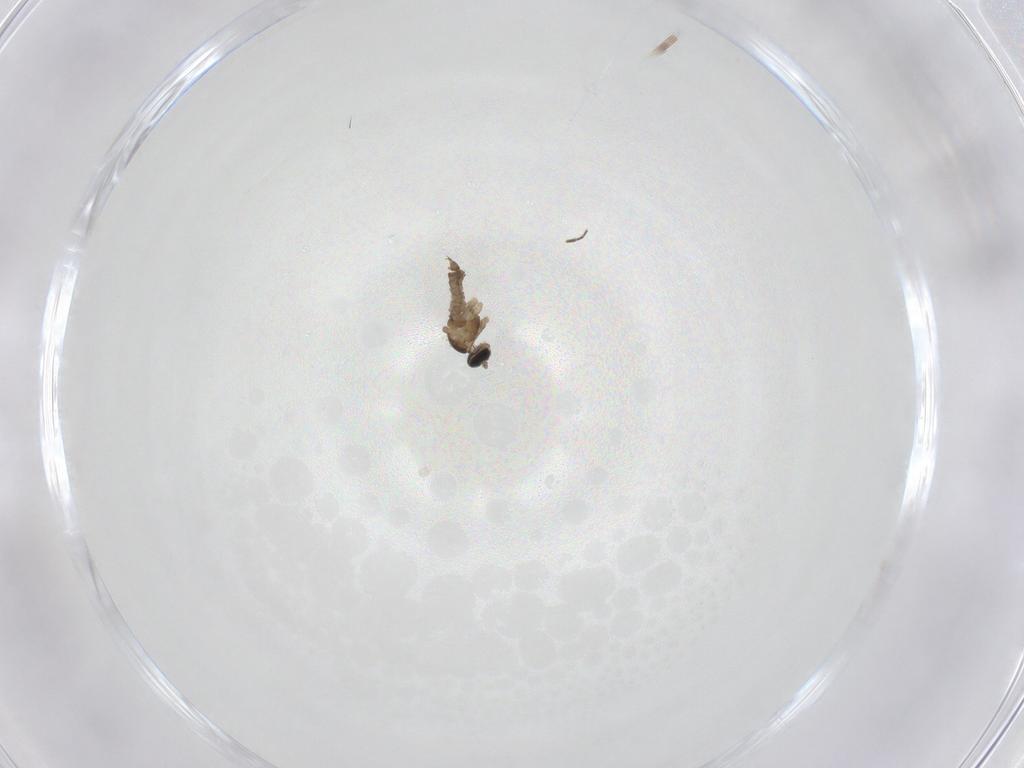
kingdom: Animalia
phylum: Arthropoda
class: Insecta
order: Diptera
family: Cecidomyiidae
